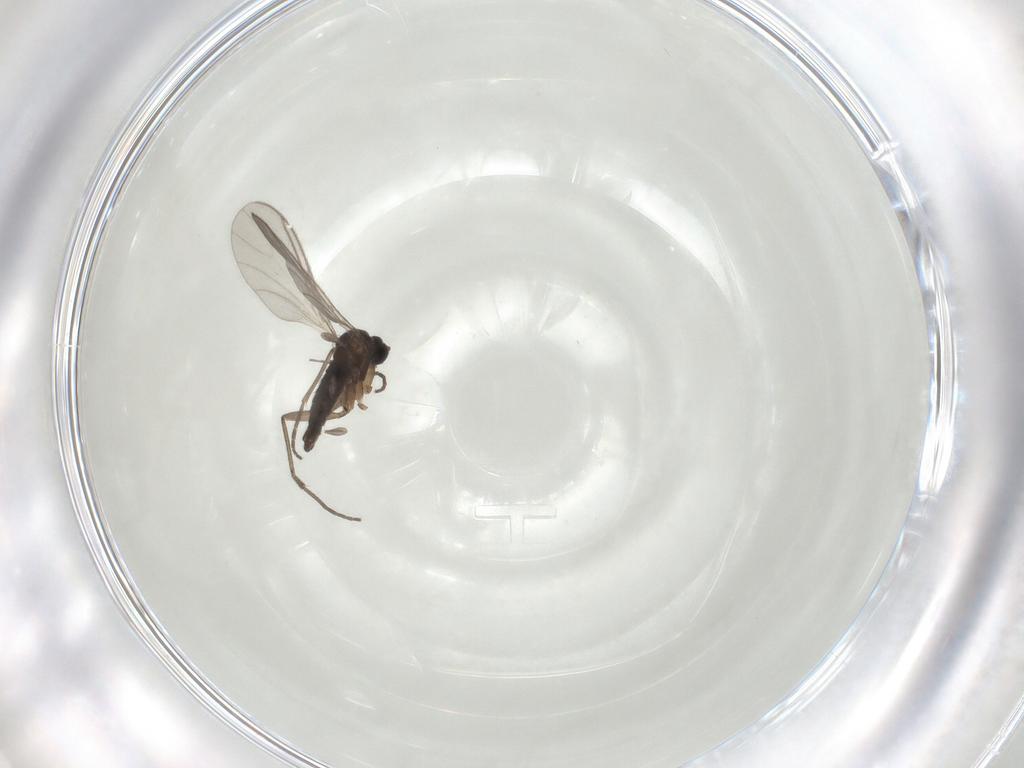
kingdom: Animalia
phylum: Arthropoda
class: Insecta
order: Diptera
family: Sciaridae
